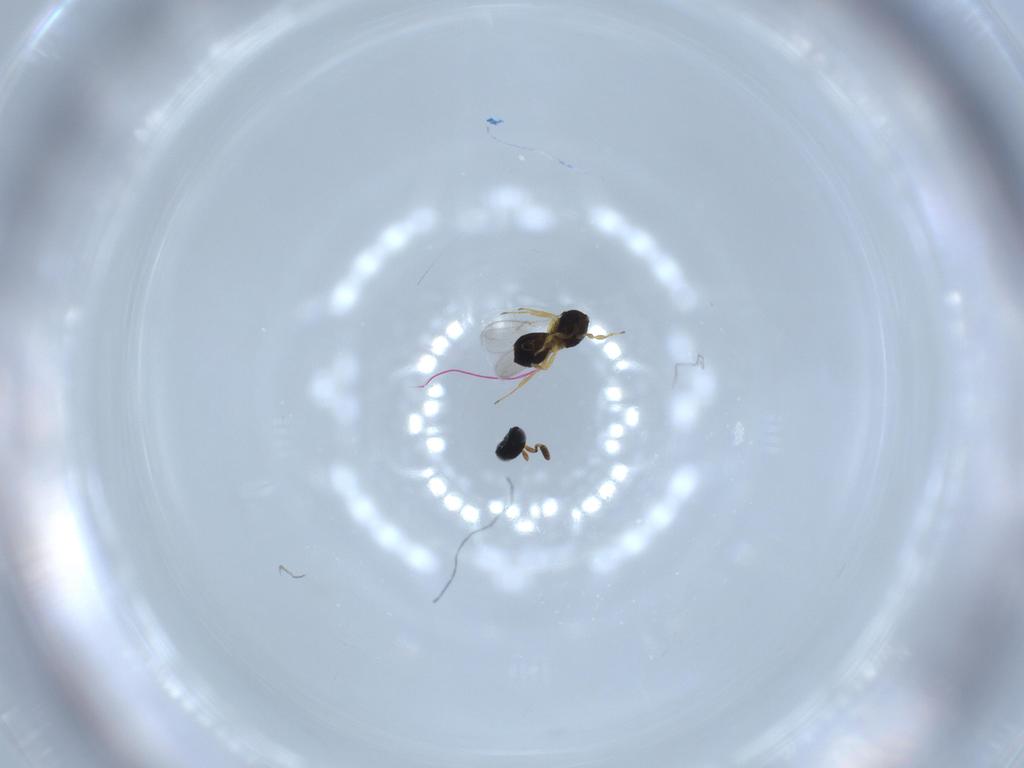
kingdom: Animalia
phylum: Arthropoda
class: Insecta
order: Hymenoptera
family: Scelionidae
